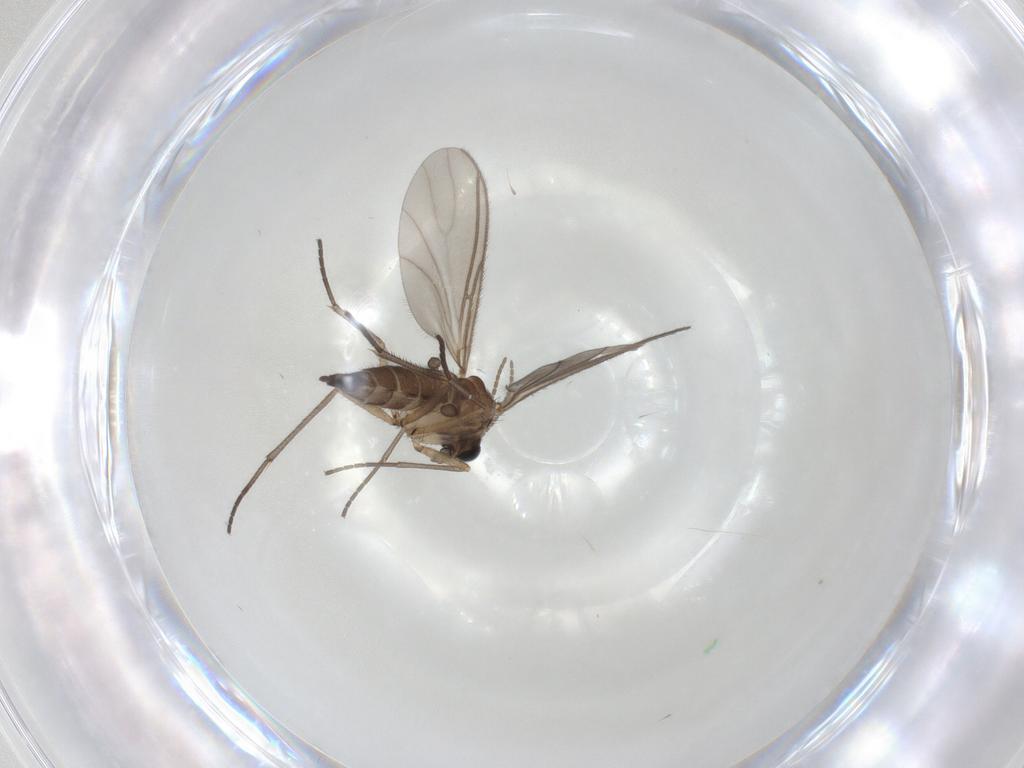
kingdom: Animalia
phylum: Arthropoda
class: Insecta
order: Diptera
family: Sciaridae
